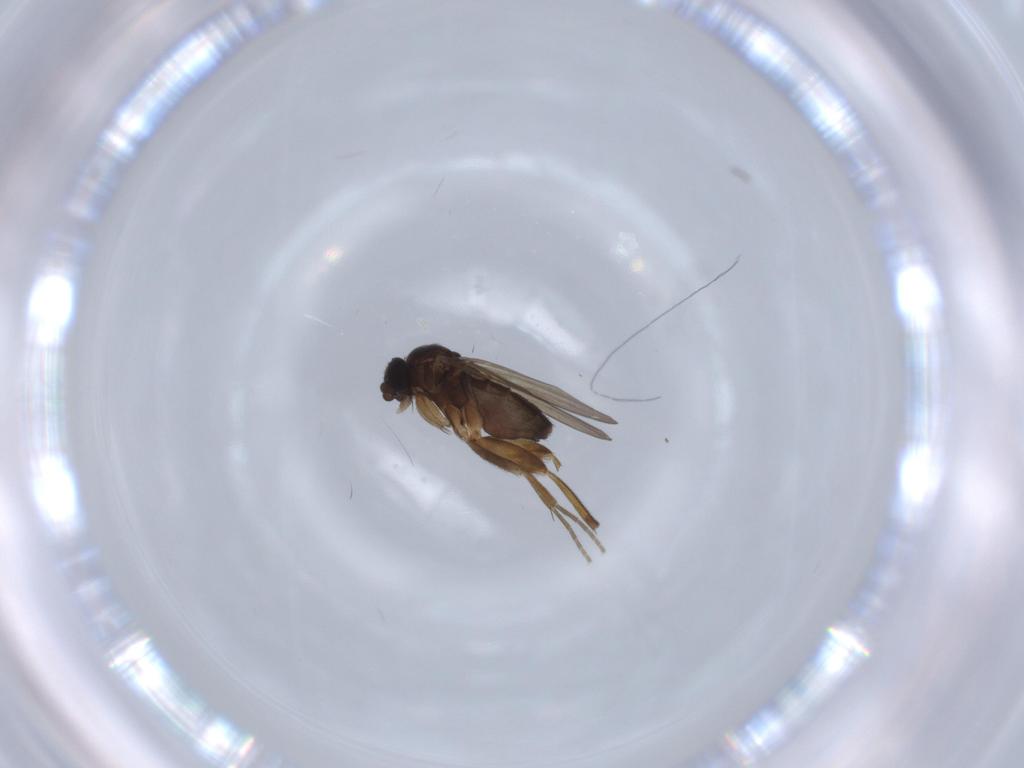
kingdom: Animalia
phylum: Arthropoda
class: Insecta
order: Diptera
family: Phoridae
